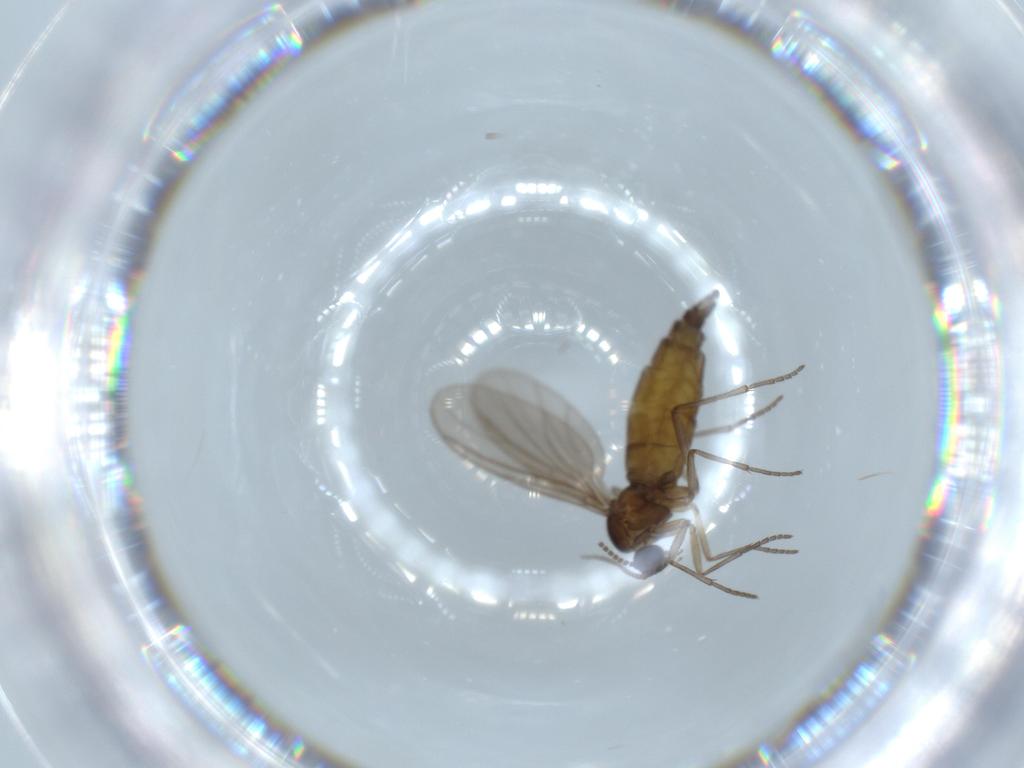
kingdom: Animalia
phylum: Arthropoda
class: Insecta
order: Diptera
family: Sciaridae
